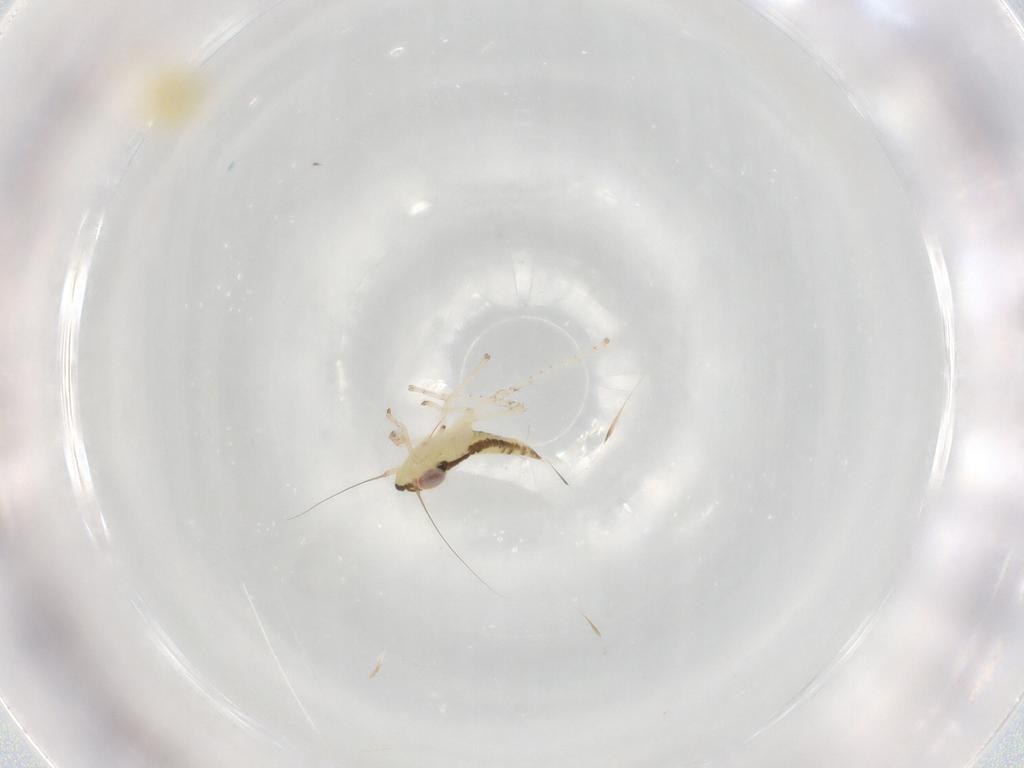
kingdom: Animalia
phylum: Arthropoda
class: Insecta
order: Hemiptera
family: Cicadellidae
